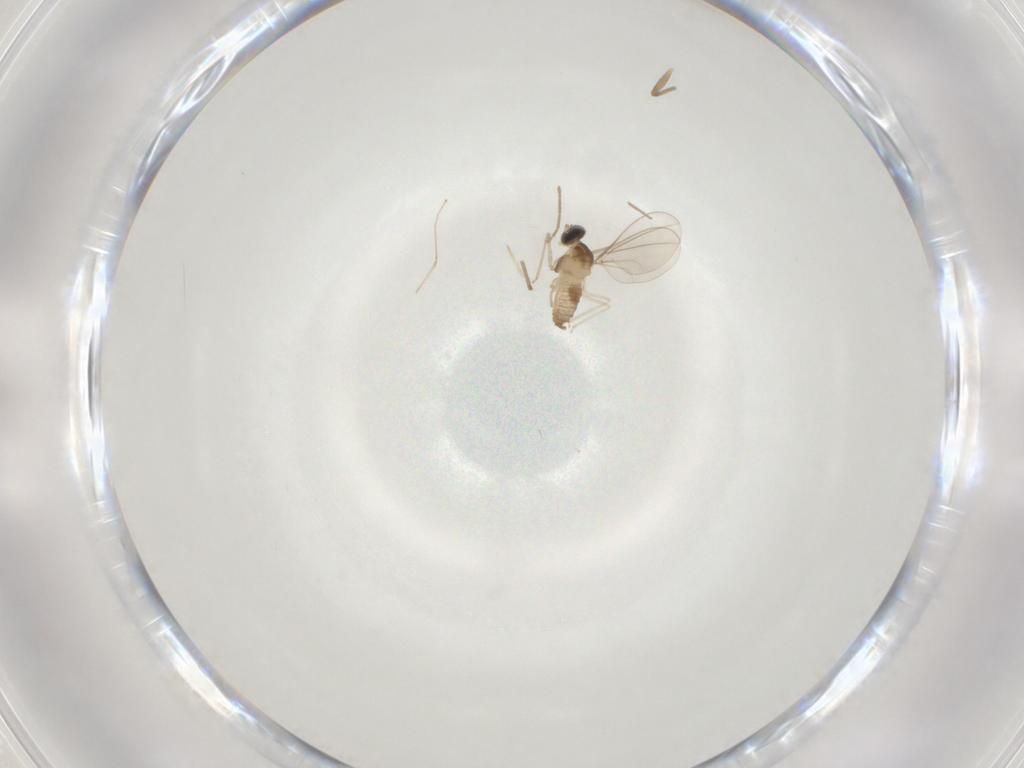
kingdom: Animalia
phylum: Arthropoda
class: Insecta
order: Diptera
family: Cecidomyiidae
